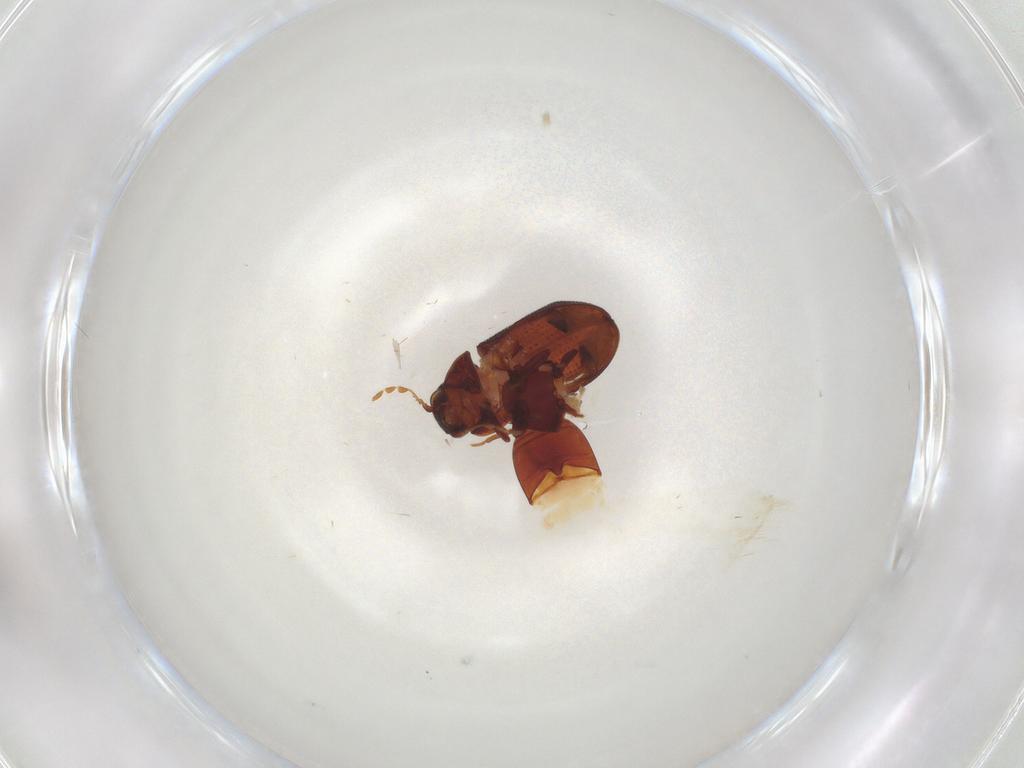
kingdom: Animalia
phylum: Arthropoda
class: Insecta
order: Coleoptera
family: Ptinidae
